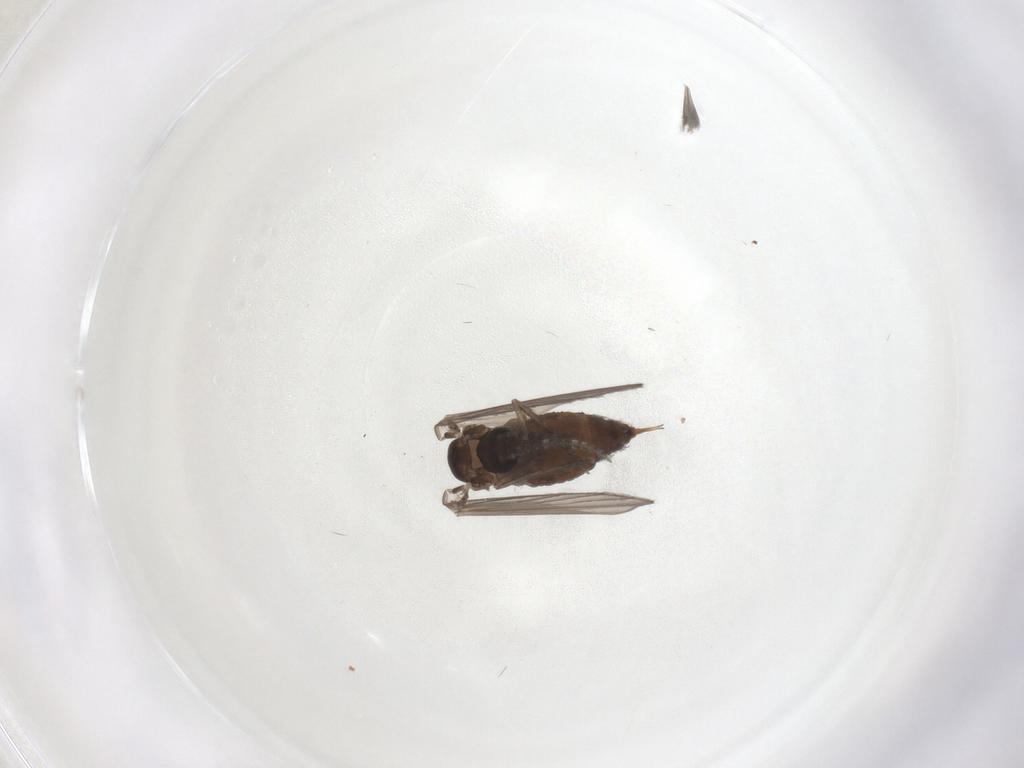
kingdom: Animalia
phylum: Arthropoda
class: Insecta
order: Diptera
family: Psychodidae
